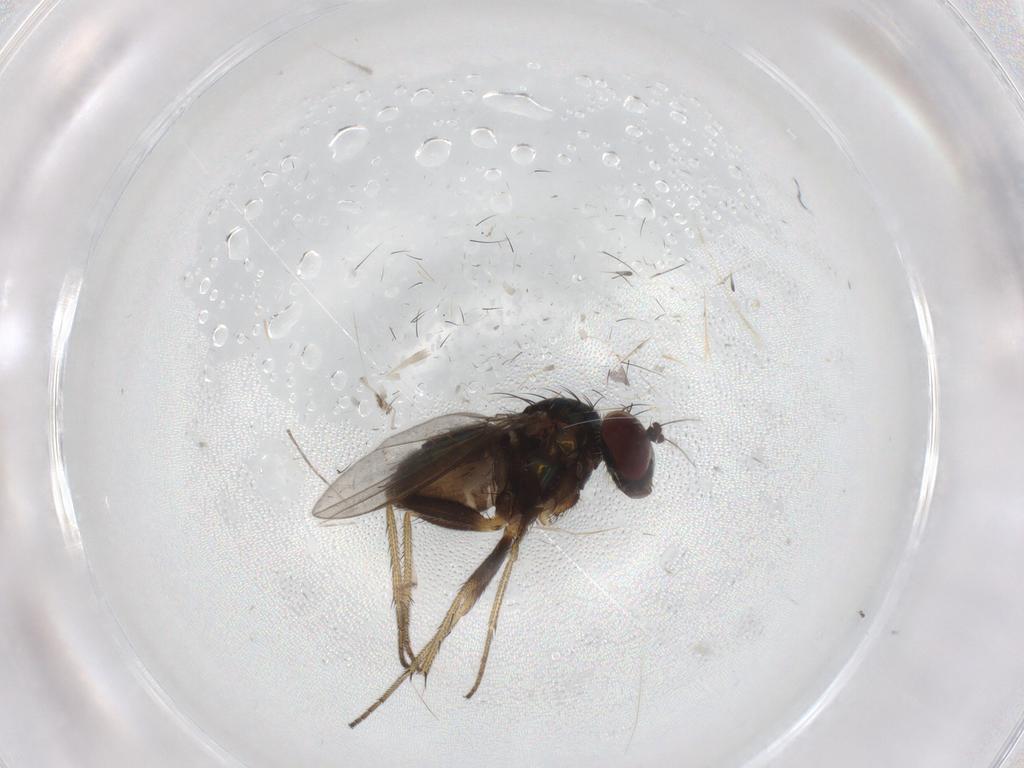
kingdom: Animalia
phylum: Arthropoda
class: Insecta
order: Diptera
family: Psychodidae
